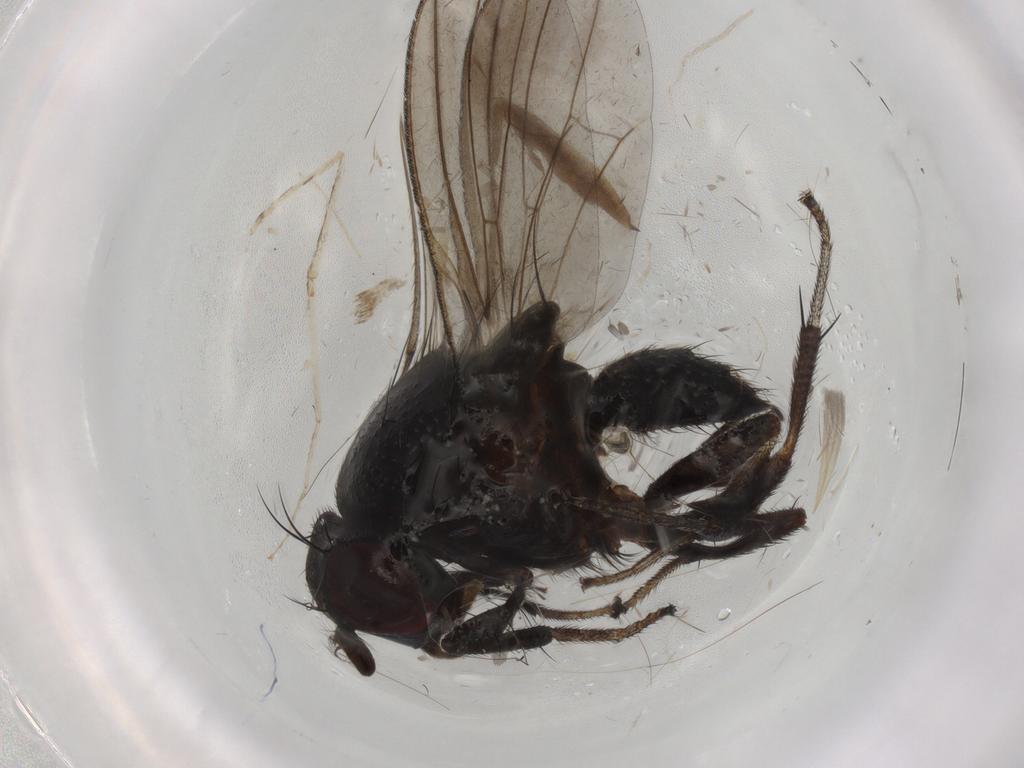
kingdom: Animalia
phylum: Arthropoda
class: Insecta
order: Diptera
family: Lauxaniidae
